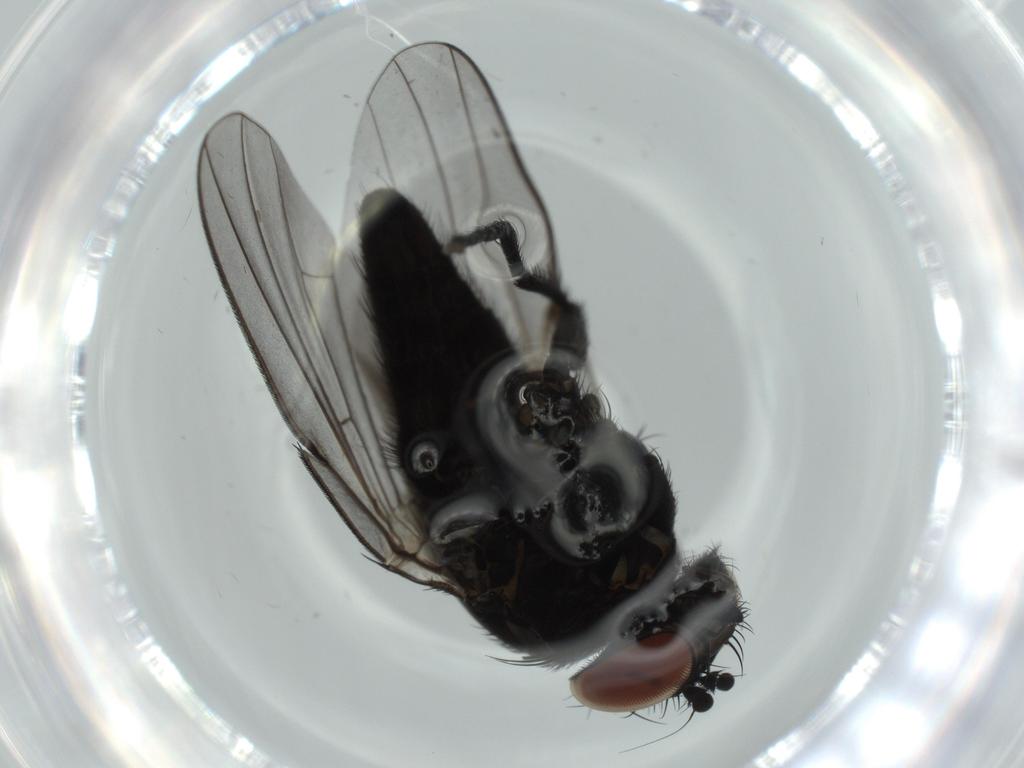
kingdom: Animalia
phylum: Arthropoda
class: Insecta
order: Diptera
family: Milichiidae
